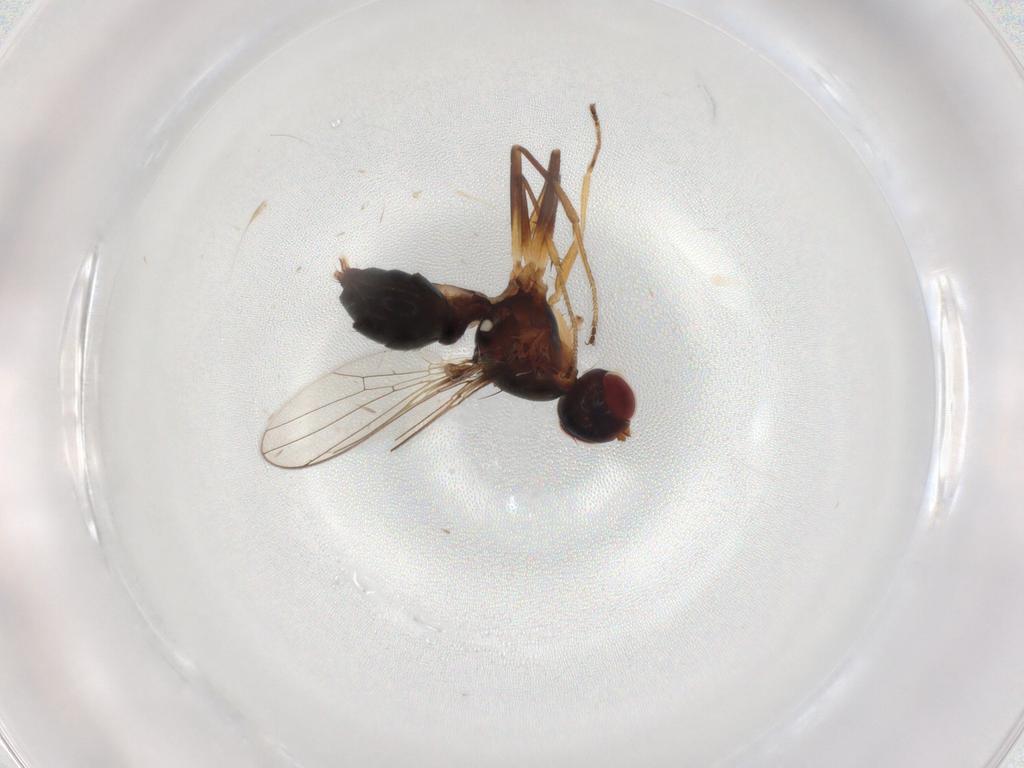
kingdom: Animalia
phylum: Arthropoda
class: Insecta
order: Diptera
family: Sepsidae
